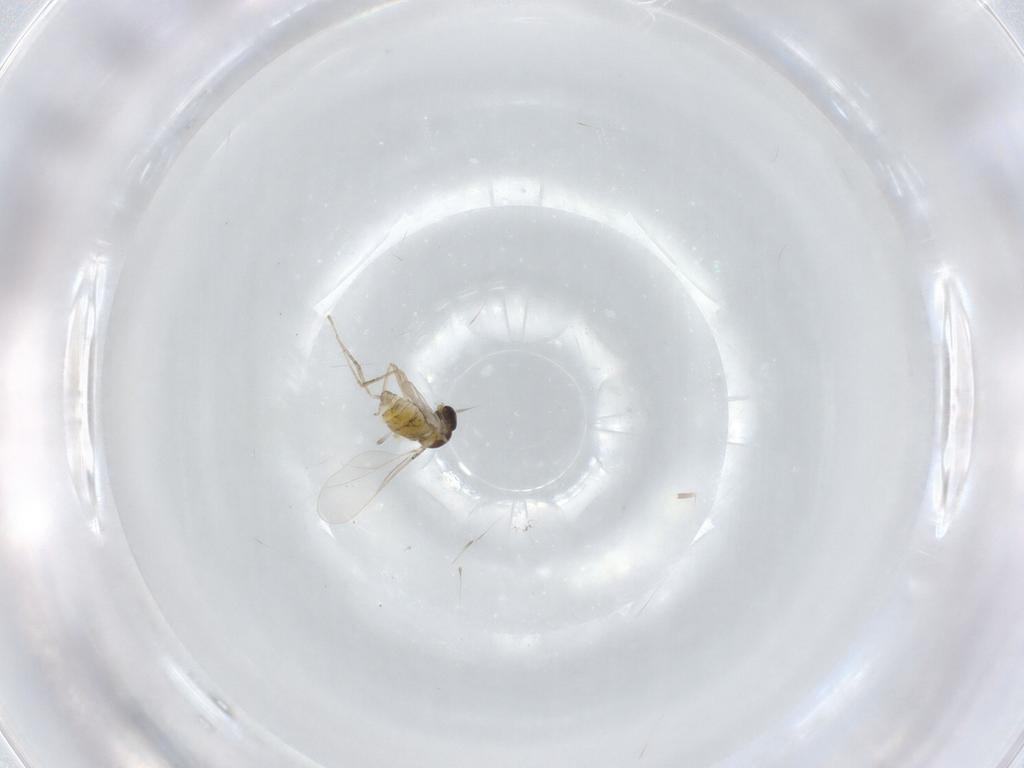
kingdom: Animalia
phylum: Arthropoda
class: Insecta
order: Diptera
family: Cecidomyiidae
